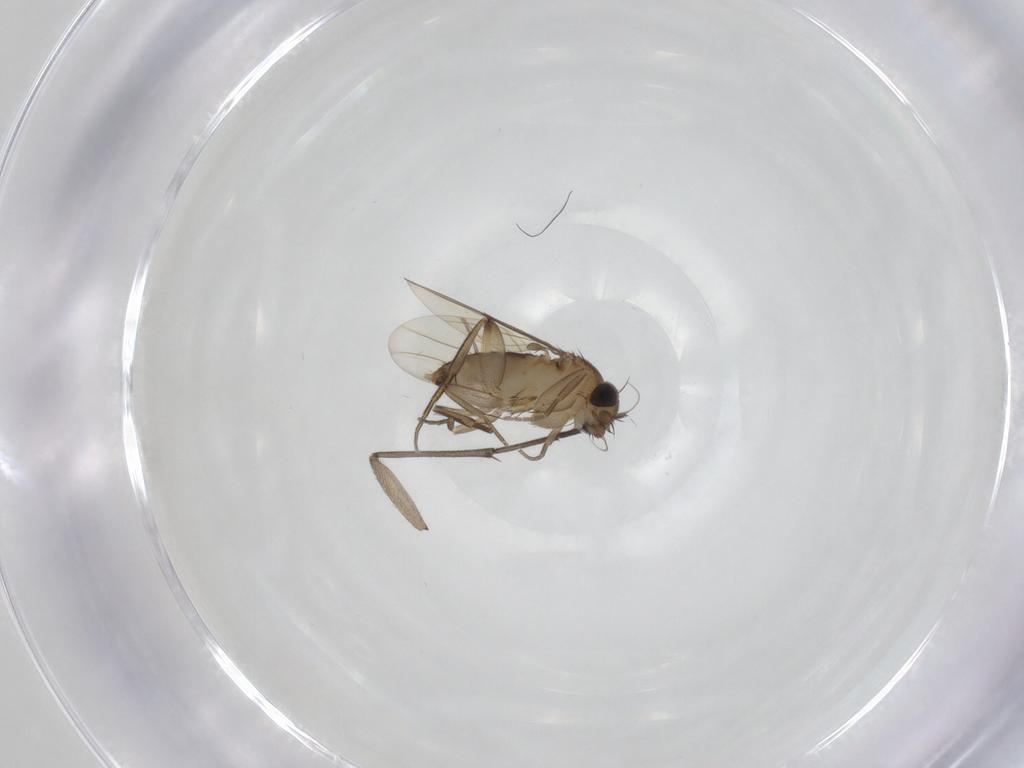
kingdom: Animalia
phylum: Arthropoda
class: Insecta
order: Diptera
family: Phoridae
